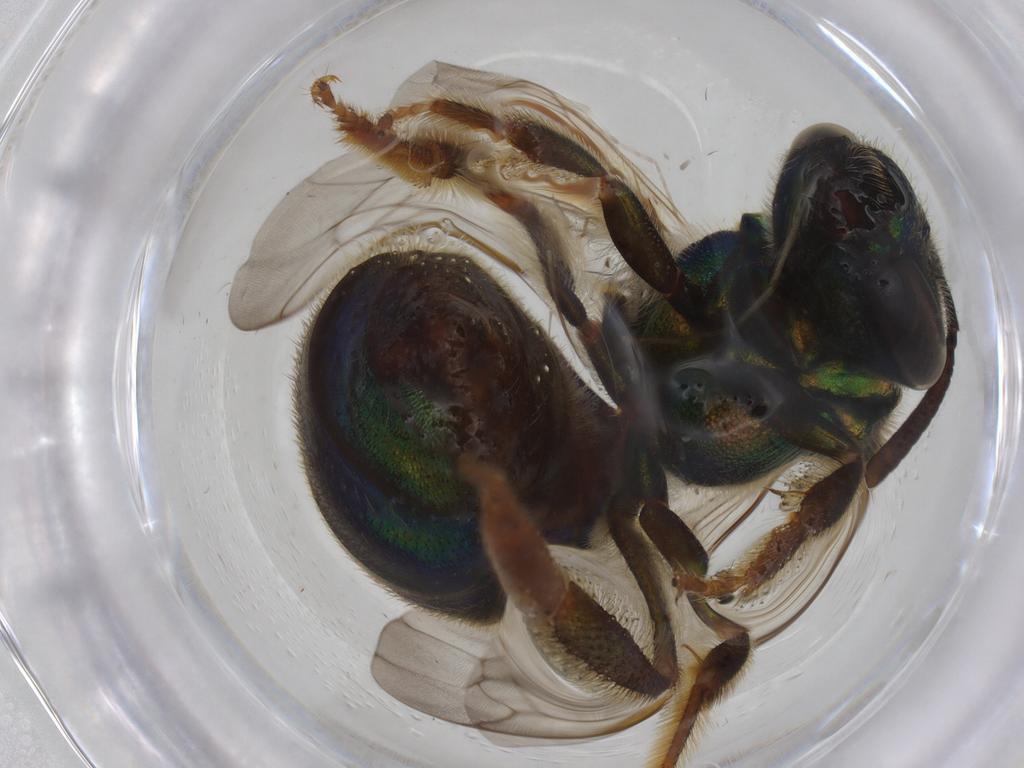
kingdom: Animalia
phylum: Arthropoda
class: Insecta
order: Hymenoptera
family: Halictidae
